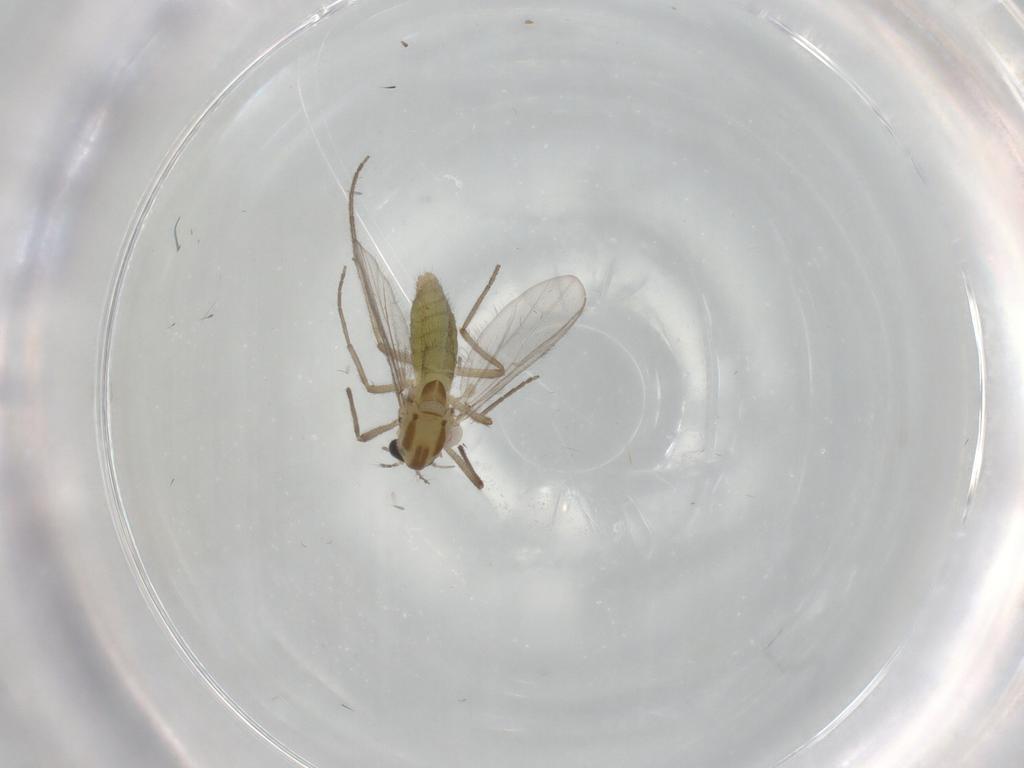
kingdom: Animalia
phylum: Arthropoda
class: Insecta
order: Diptera
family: Chironomidae
